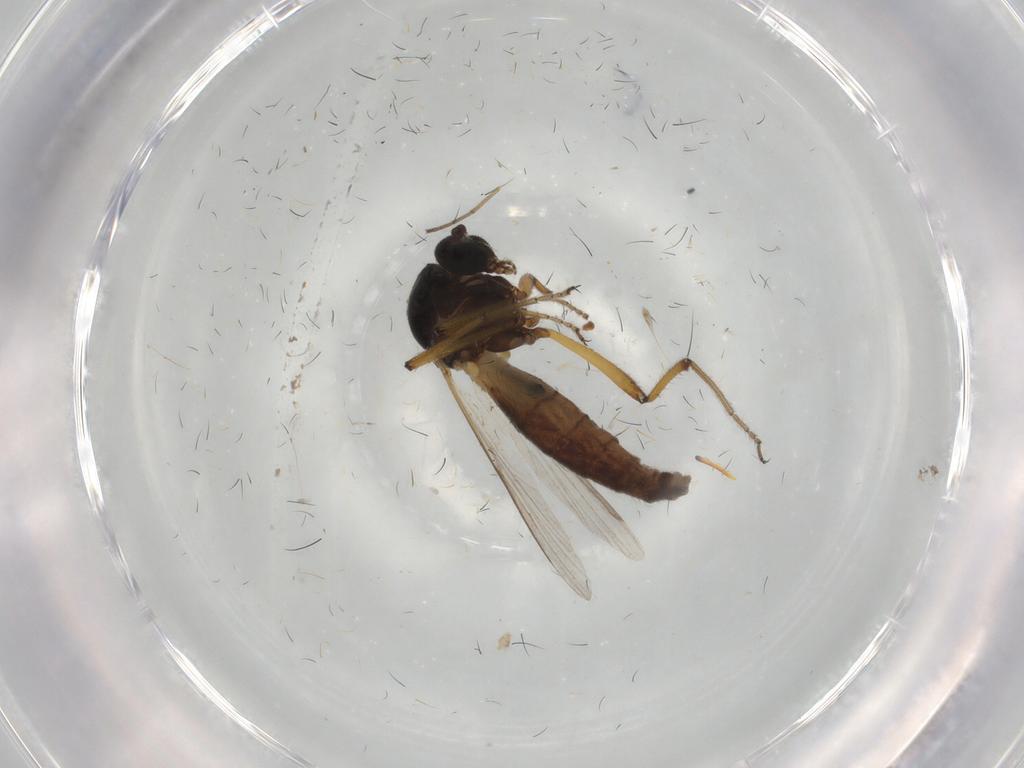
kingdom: Animalia
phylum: Arthropoda
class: Insecta
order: Diptera
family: Ceratopogonidae
